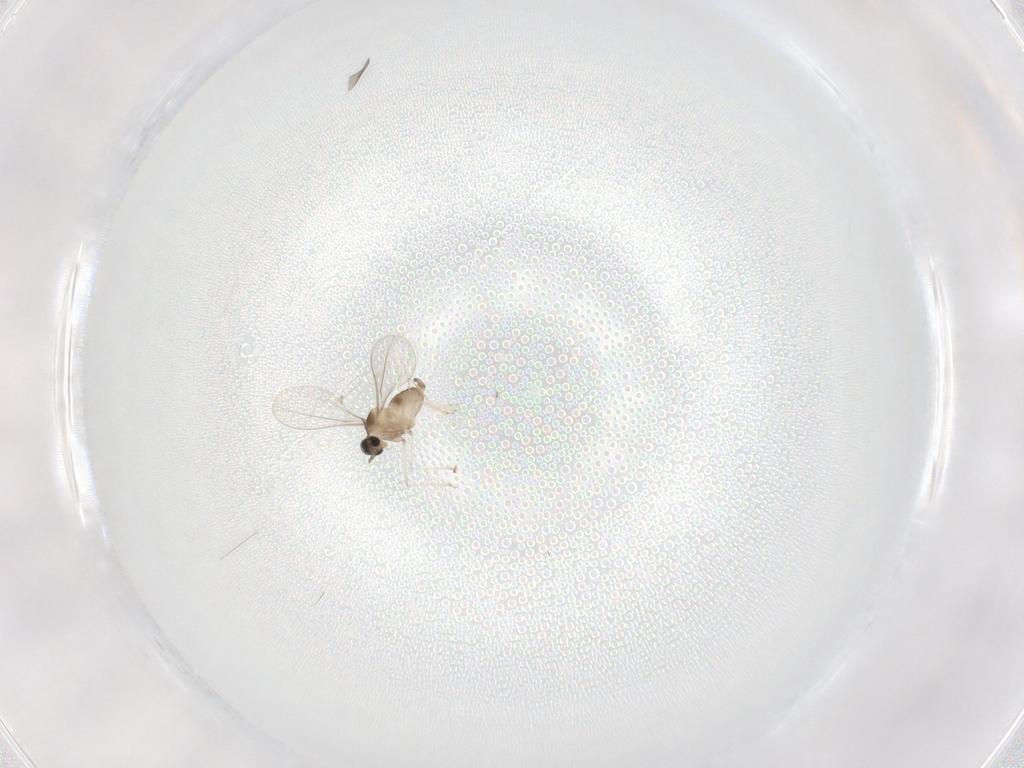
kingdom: Animalia
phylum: Arthropoda
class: Insecta
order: Diptera
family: Cecidomyiidae
